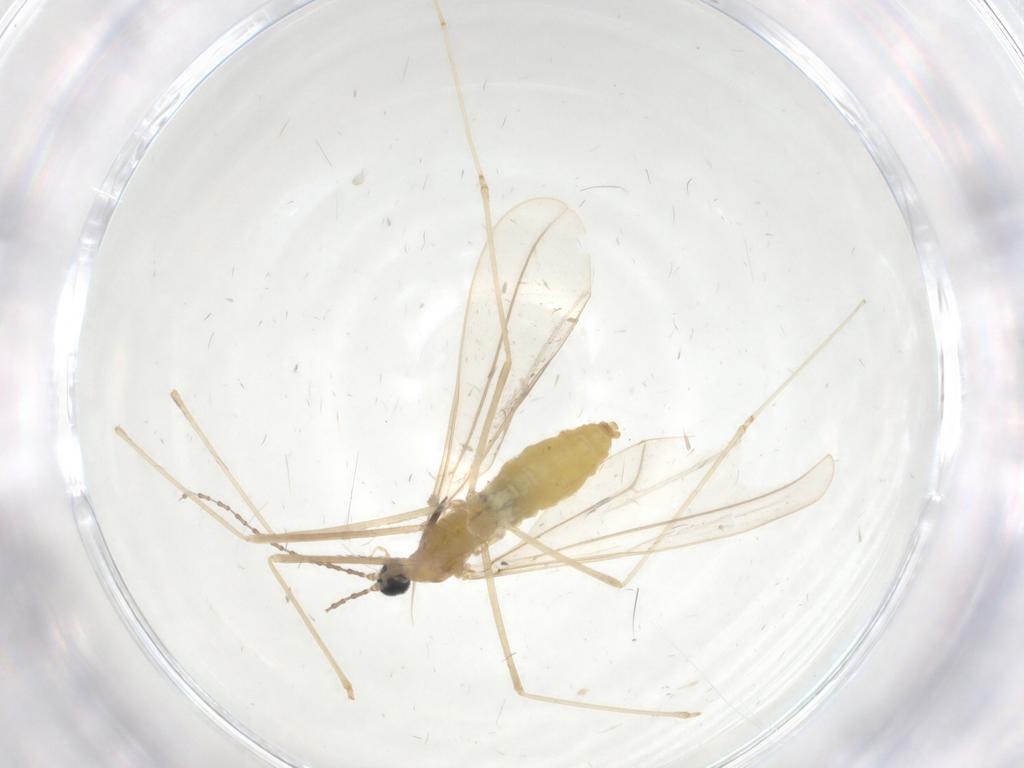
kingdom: Animalia
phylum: Arthropoda
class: Insecta
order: Diptera
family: Cecidomyiidae
